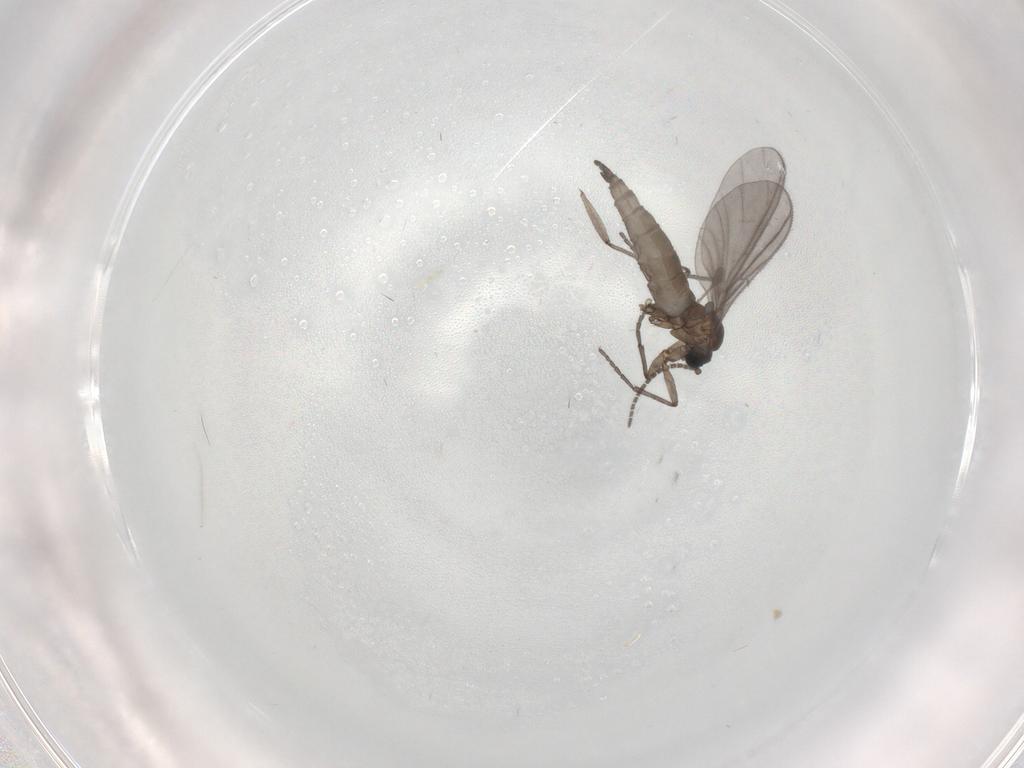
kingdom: Animalia
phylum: Arthropoda
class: Insecta
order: Diptera
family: Sciaridae
